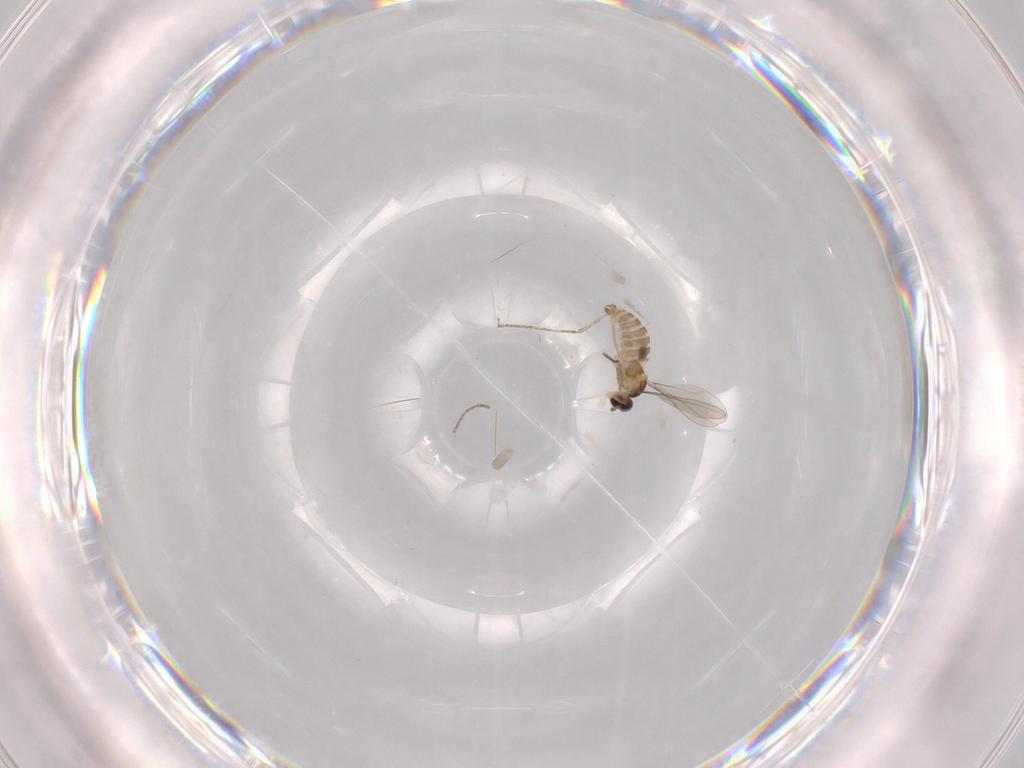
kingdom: Animalia
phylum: Arthropoda
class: Insecta
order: Diptera
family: Cecidomyiidae
